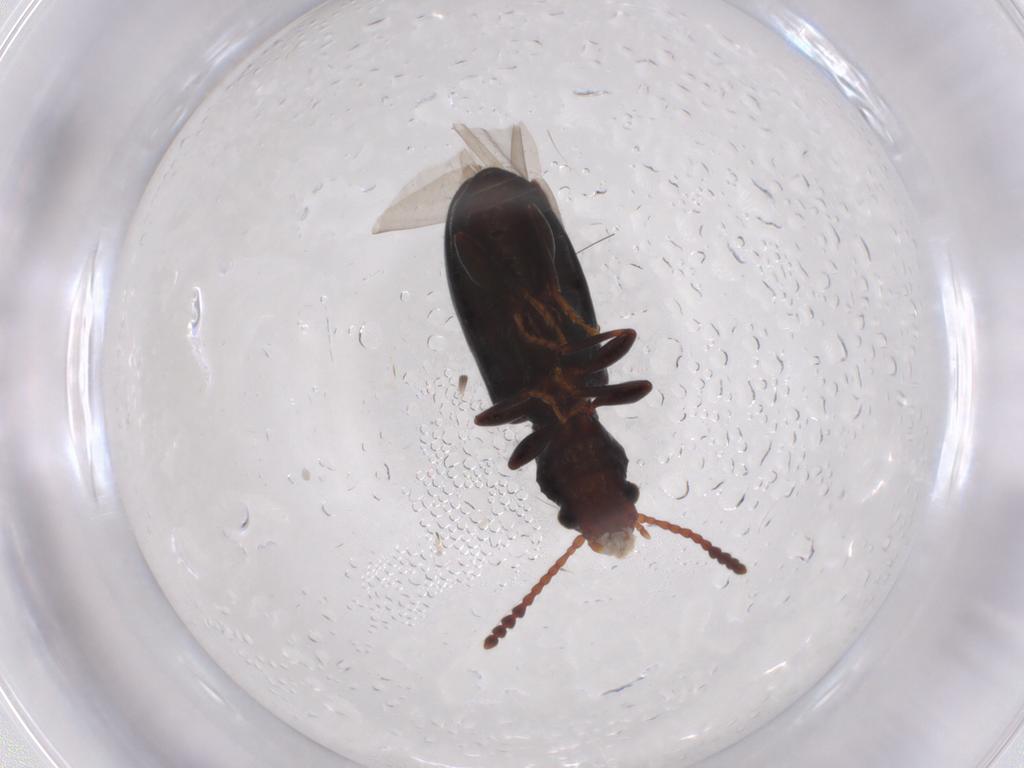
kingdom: Animalia
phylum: Arthropoda
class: Insecta
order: Coleoptera
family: Salpingidae
